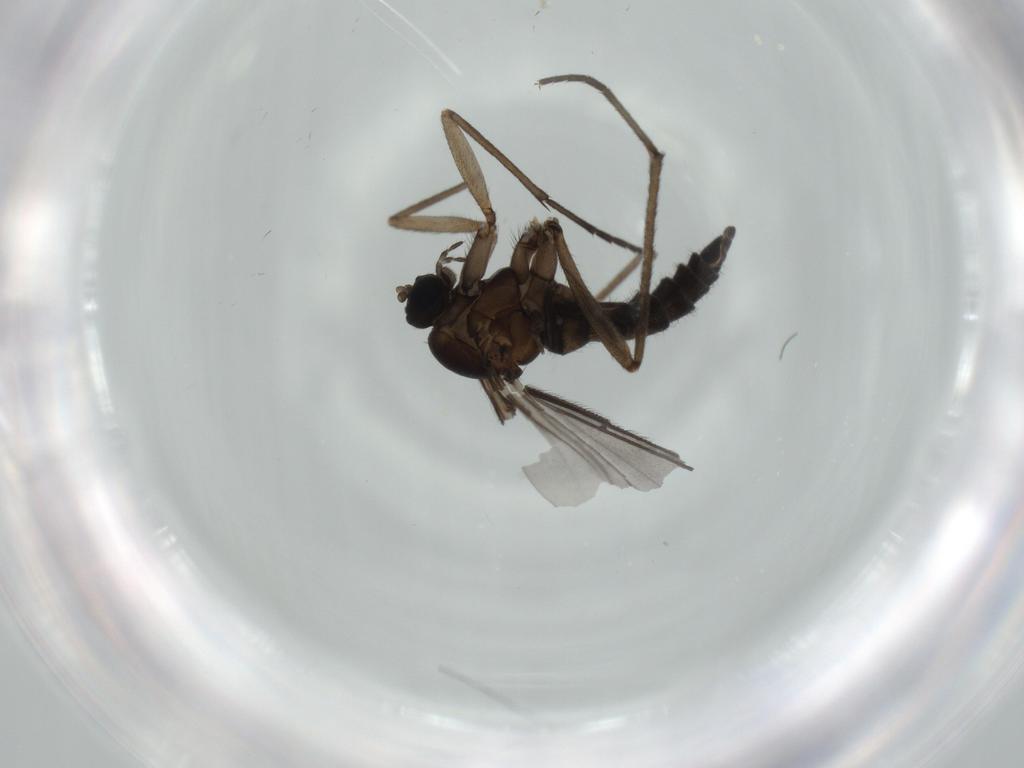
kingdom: Animalia
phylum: Arthropoda
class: Insecta
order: Diptera
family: Sciaridae
